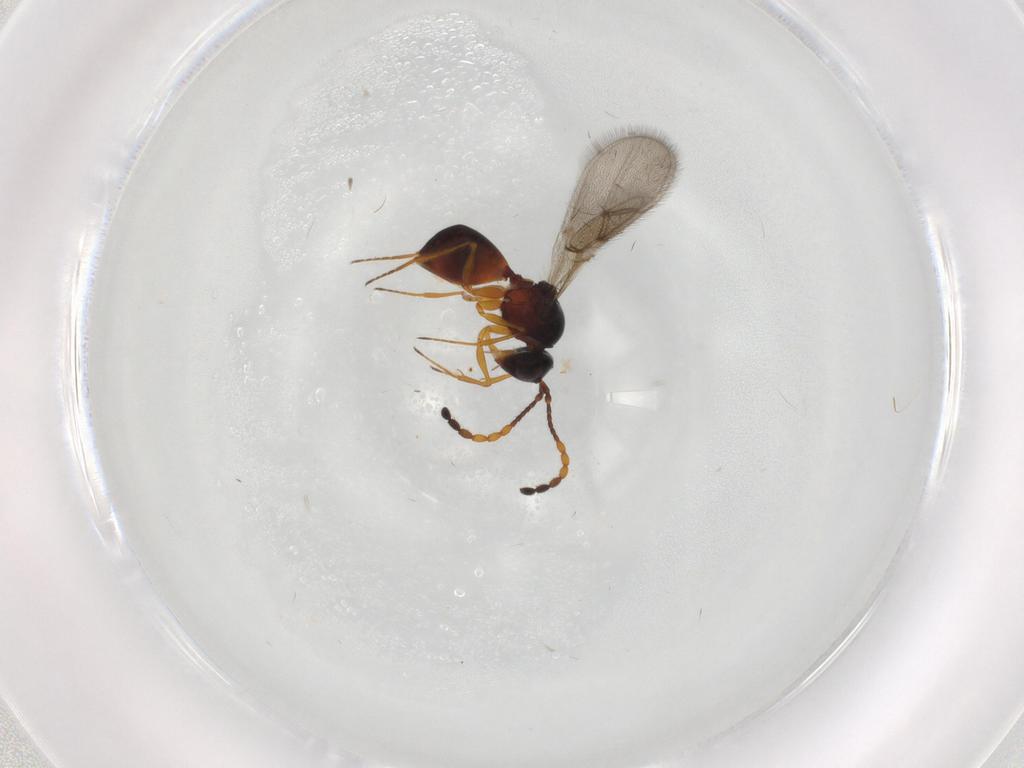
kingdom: Animalia
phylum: Arthropoda
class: Insecta
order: Hymenoptera
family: Figitidae
